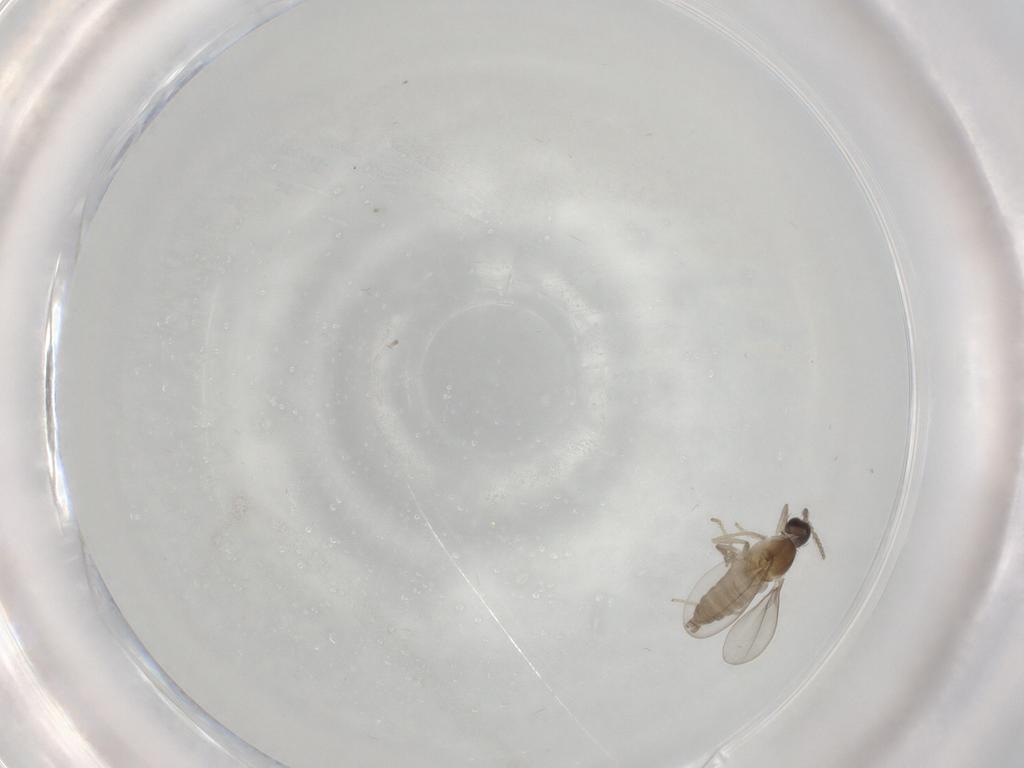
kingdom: Animalia
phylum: Arthropoda
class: Insecta
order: Diptera
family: Cecidomyiidae
